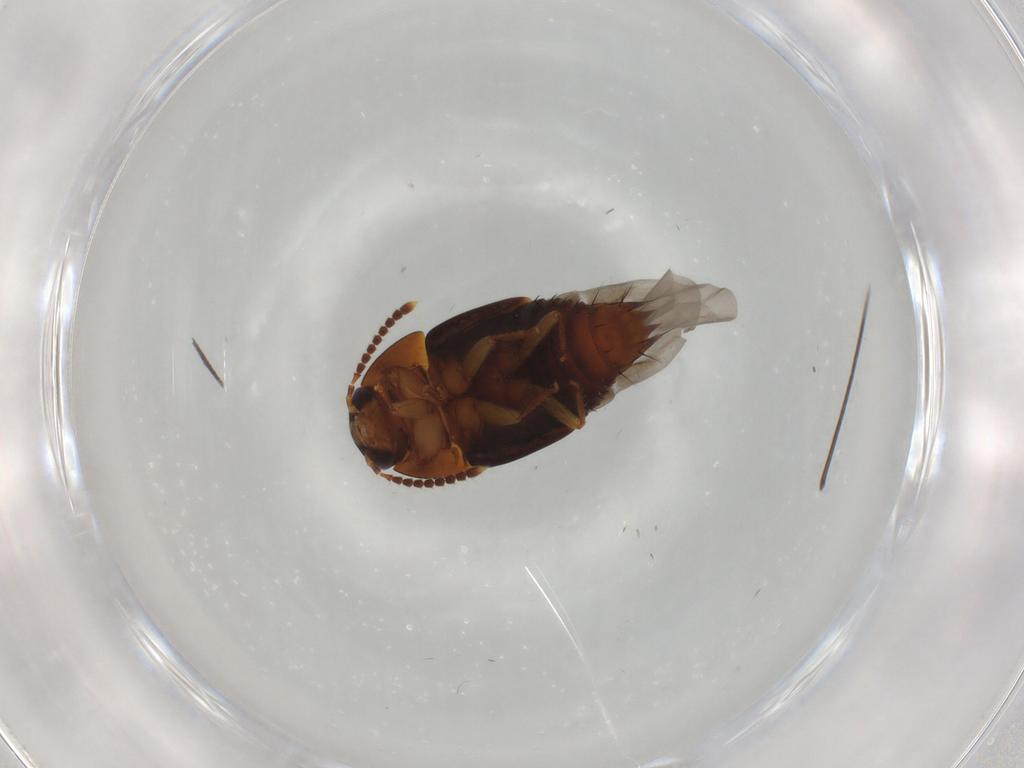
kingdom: Animalia
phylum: Arthropoda
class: Insecta
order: Coleoptera
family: Staphylinidae
